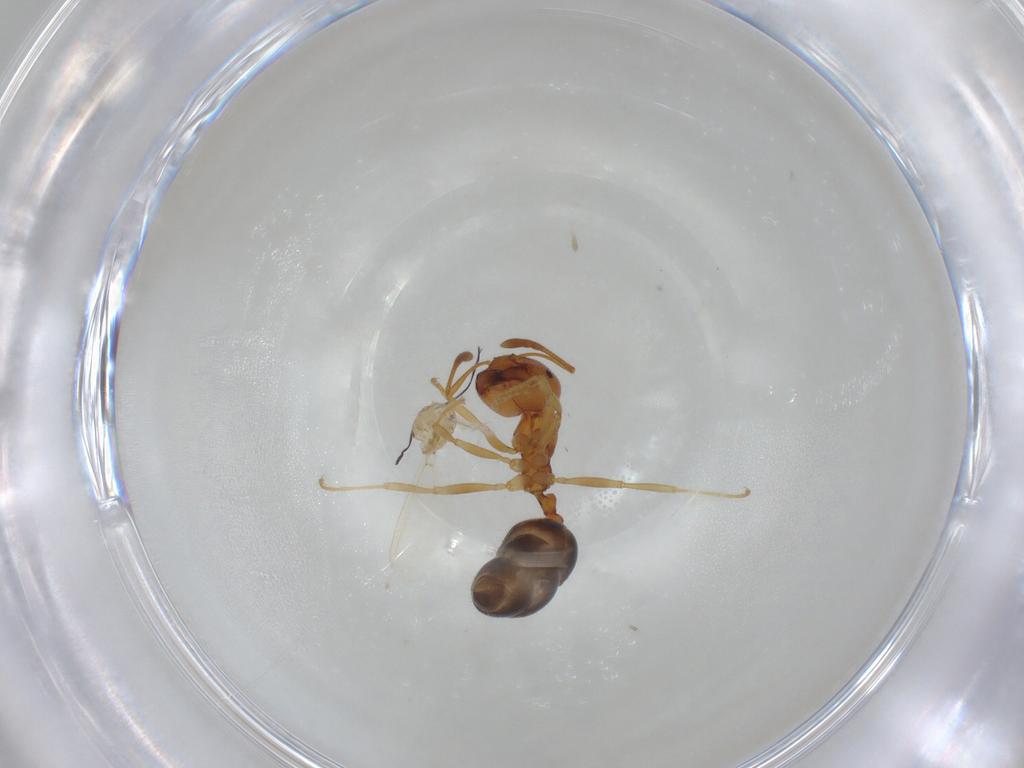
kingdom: Animalia
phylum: Arthropoda
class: Insecta
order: Hymenoptera
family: Formicidae
